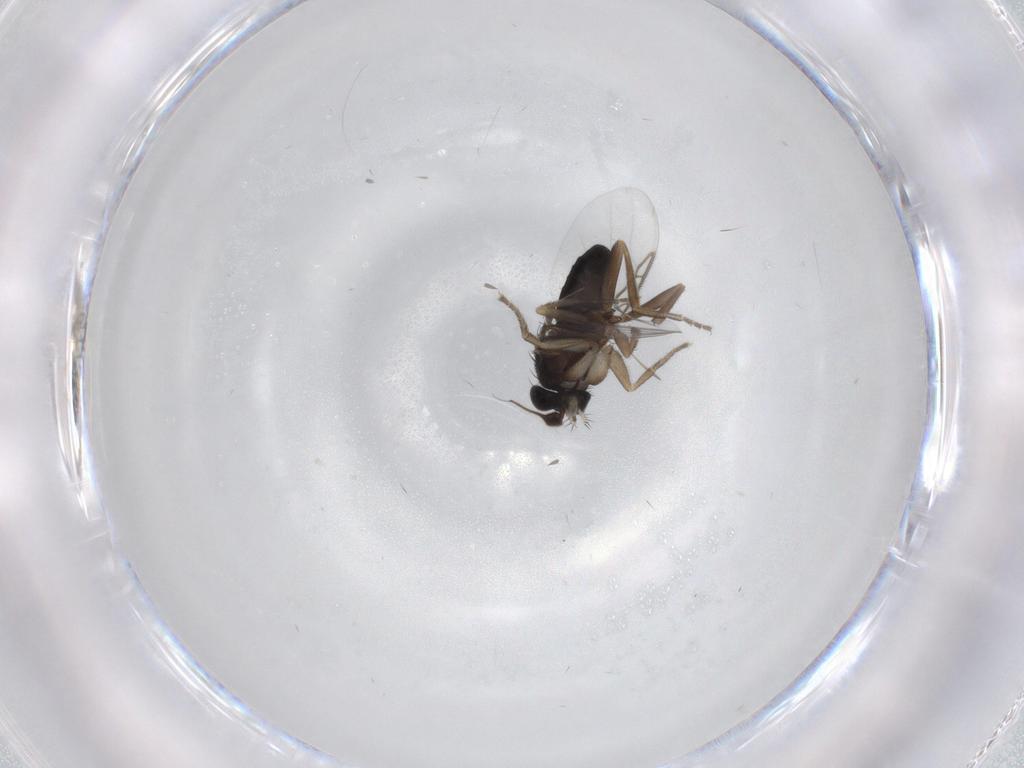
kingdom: Animalia
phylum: Arthropoda
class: Insecta
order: Diptera
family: Phoridae
